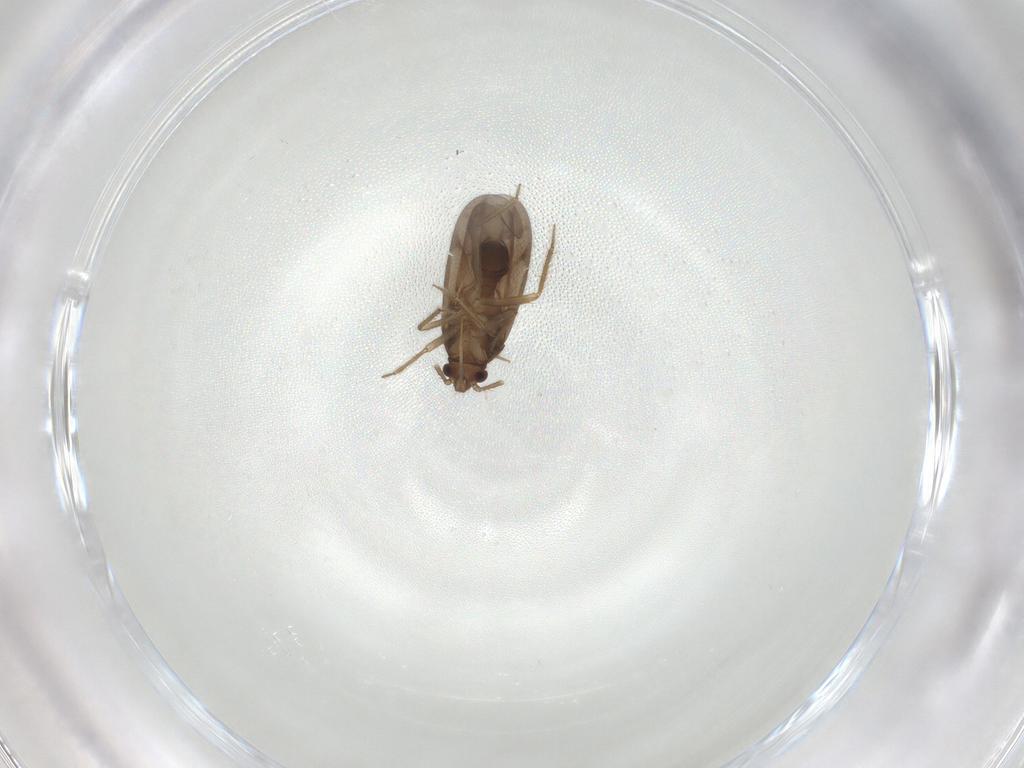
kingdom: Animalia
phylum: Arthropoda
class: Insecta
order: Hemiptera
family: Ceratocombidae
